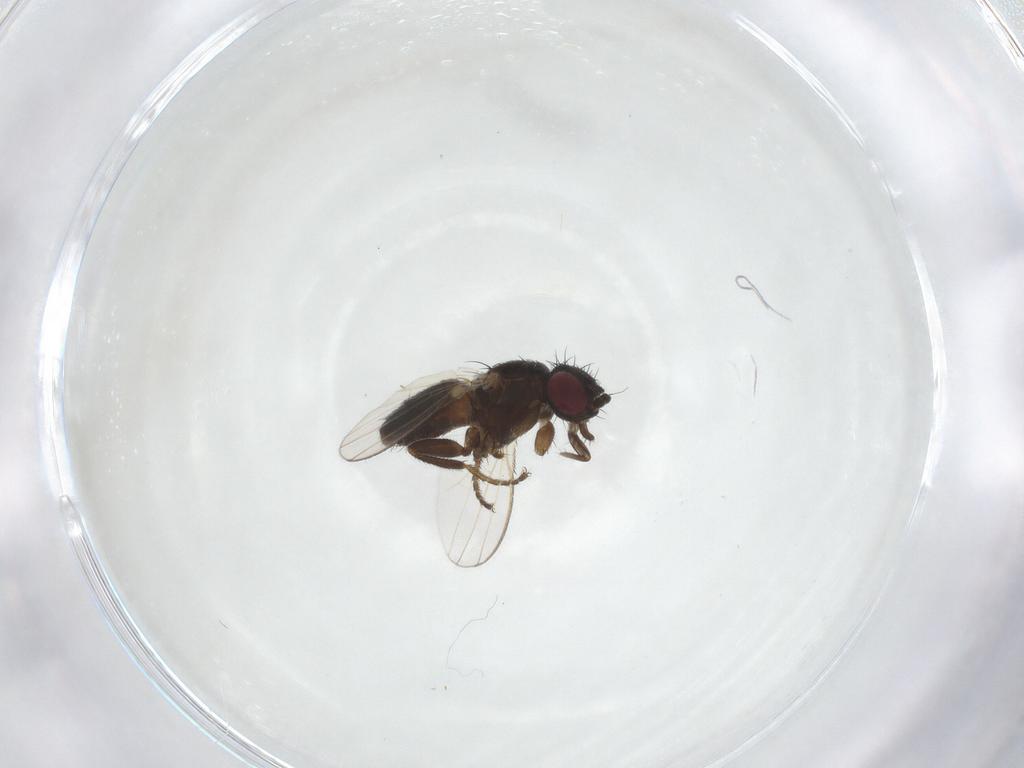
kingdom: Animalia
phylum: Arthropoda
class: Insecta
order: Diptera
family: Milichiidae
